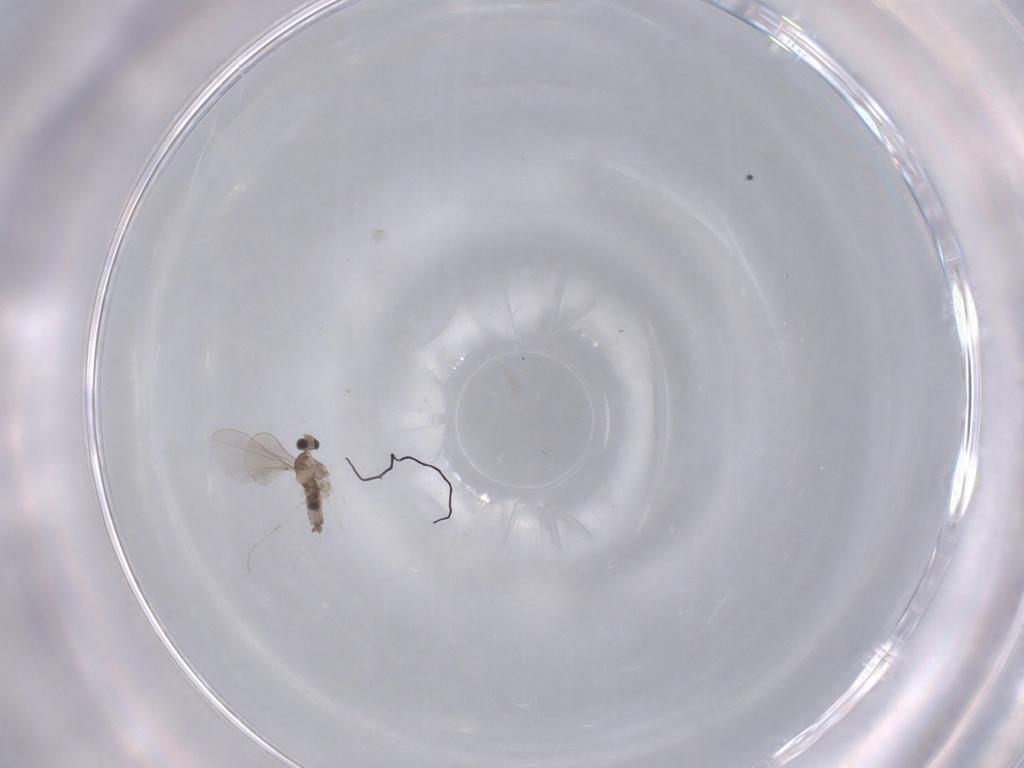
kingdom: Animalia
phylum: Arthropoda
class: Insecta
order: Diptera
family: Cecidomyiidae
